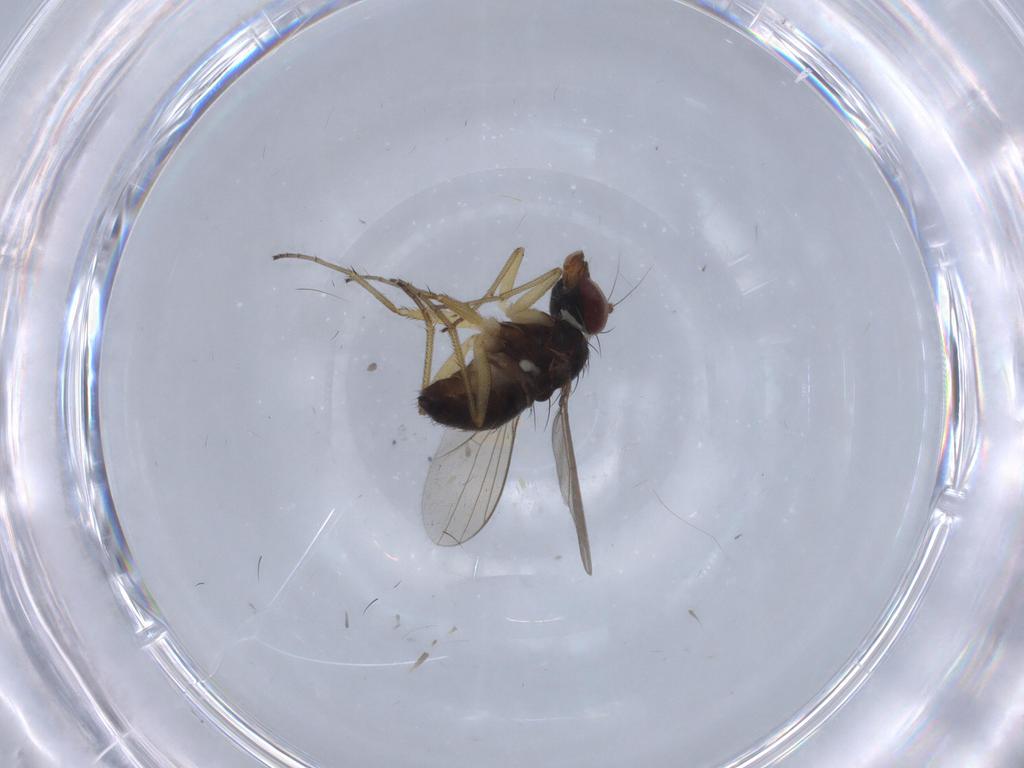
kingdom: Animalia
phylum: Arthropoda
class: Insecta
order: Diptera
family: Dolichopodidae
